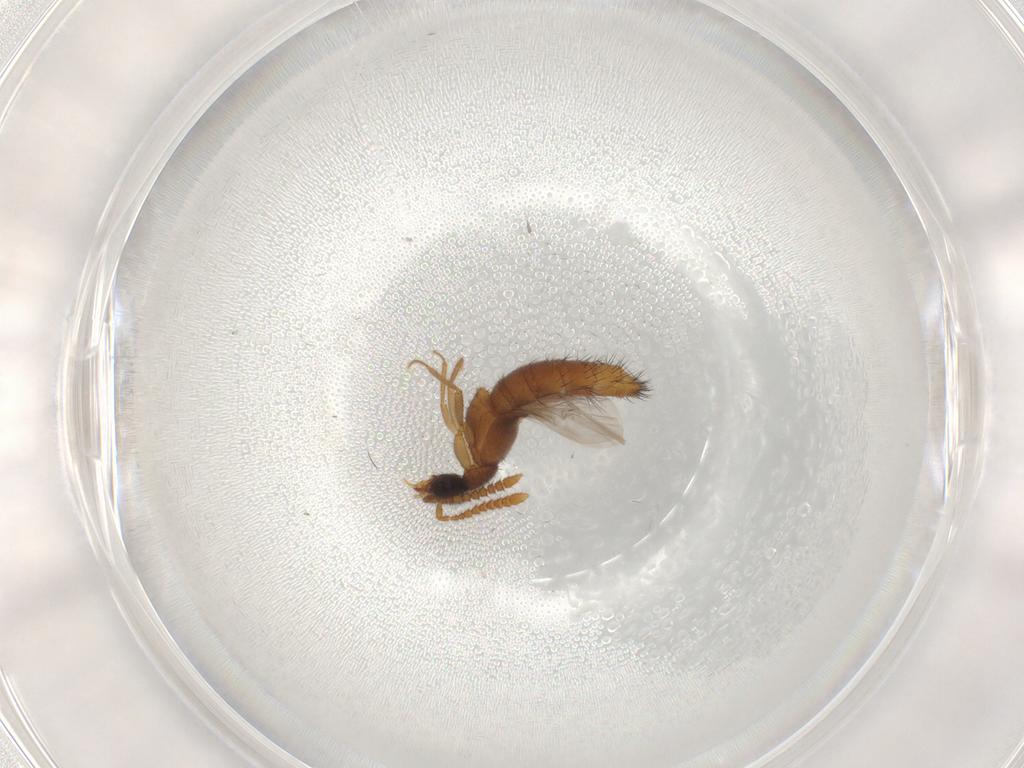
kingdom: Animalia
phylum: Arthropoda
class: Insecta
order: Coleoptera
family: Staphylinidae
